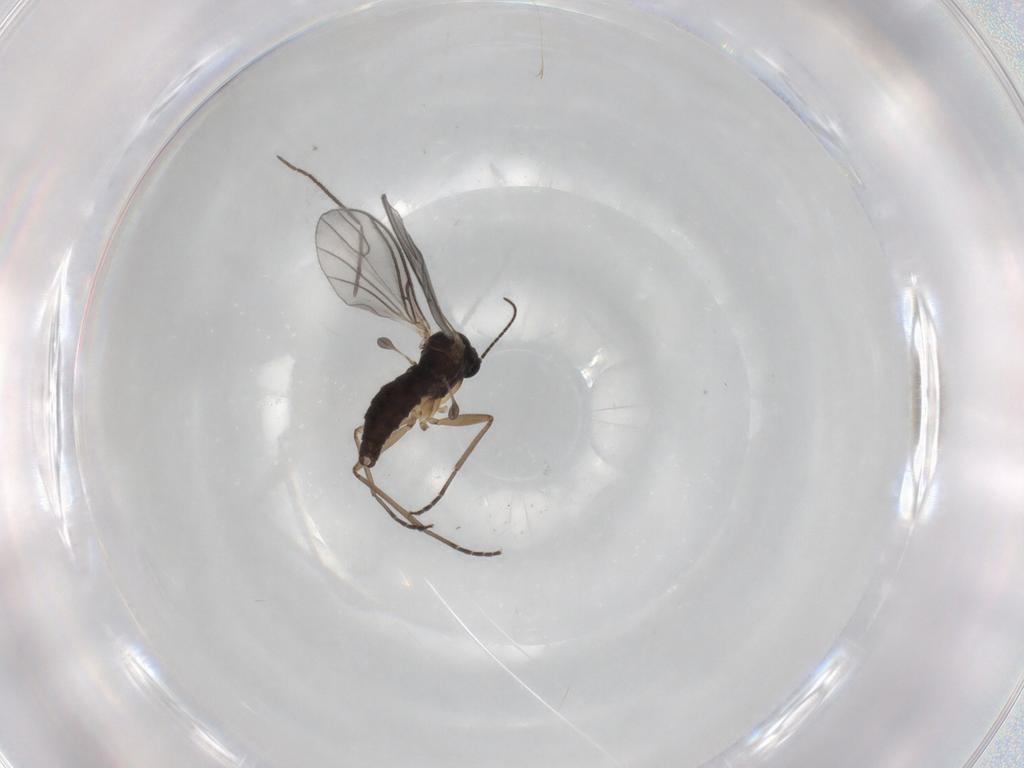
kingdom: Animalia
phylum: Arthropoda
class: Insecta
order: Diptera
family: Sciaridae
